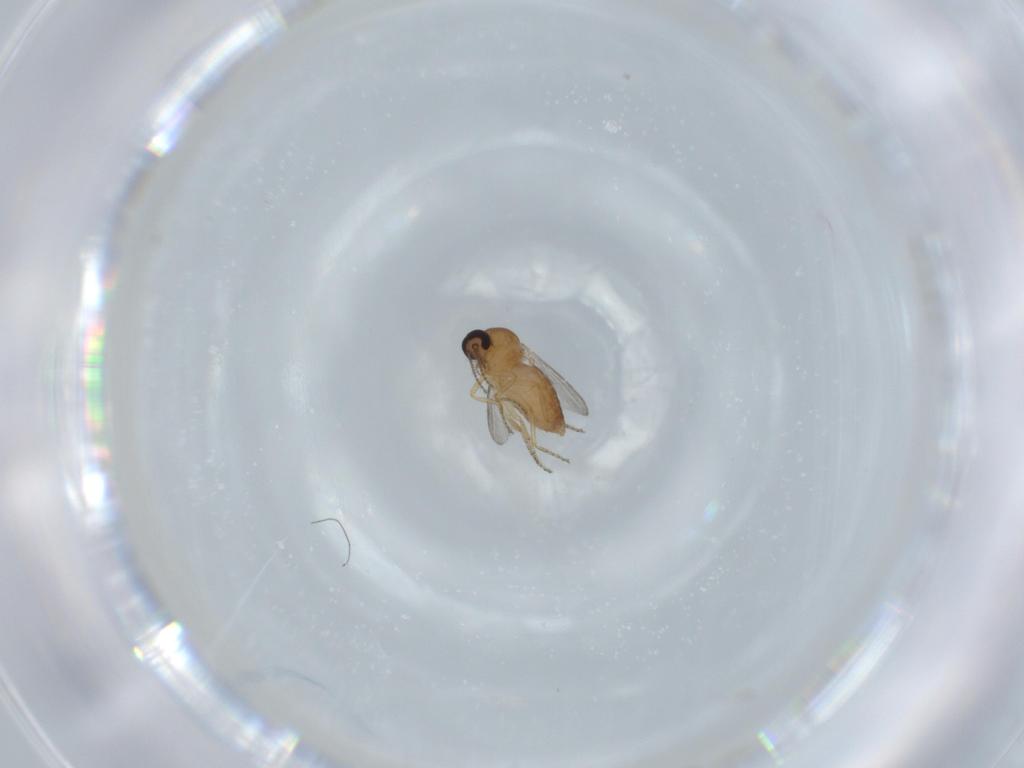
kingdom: Animalia
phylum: Arthropoda
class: Insecta
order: Diptera
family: Ceratopogonidae
